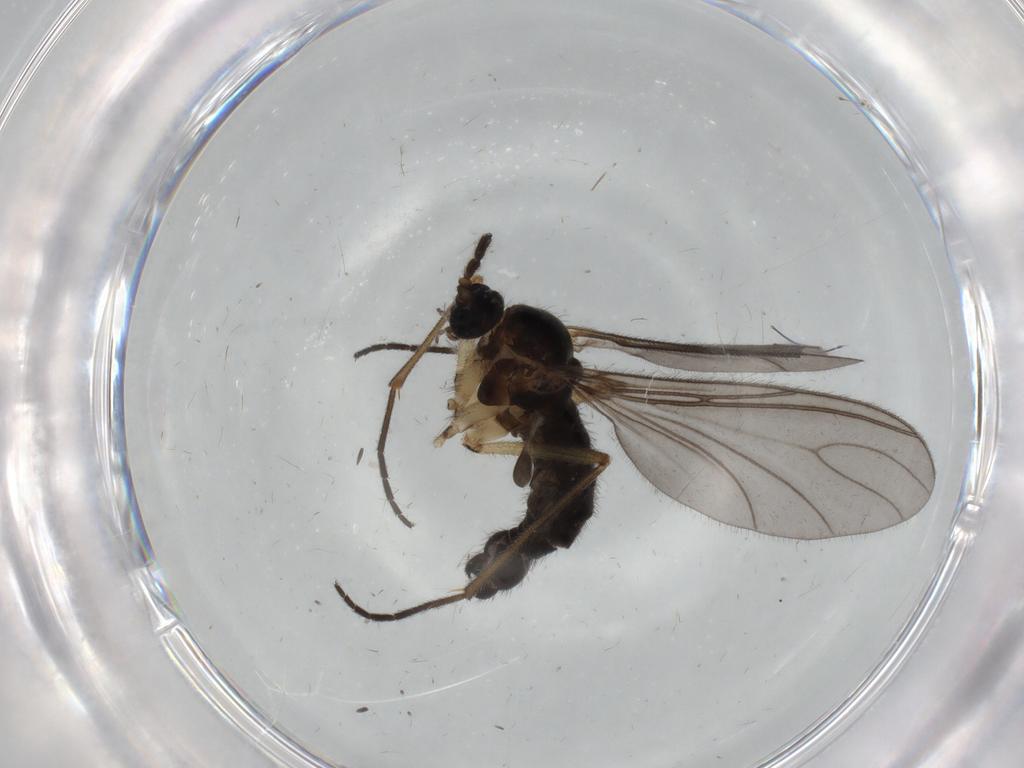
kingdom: Animalia
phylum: Arthropoda
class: Insecta
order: Diptera
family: Sciaridae
